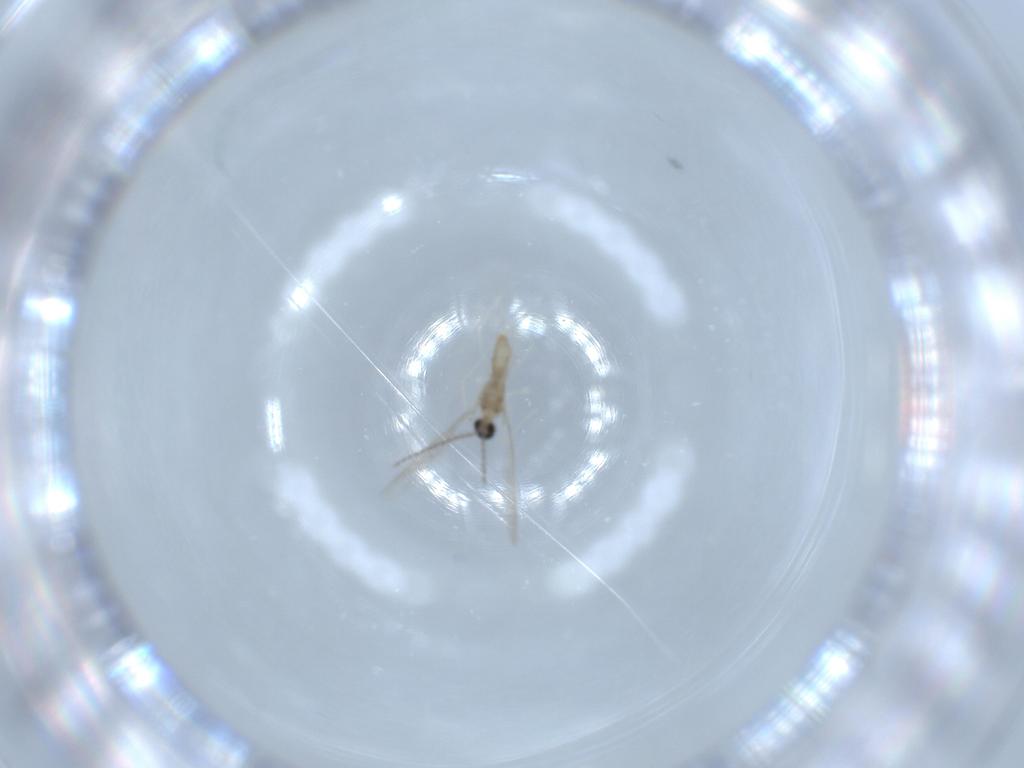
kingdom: Animalia
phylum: Arthropoda
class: Insecta
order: Diptera
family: Cecidomyiidae
